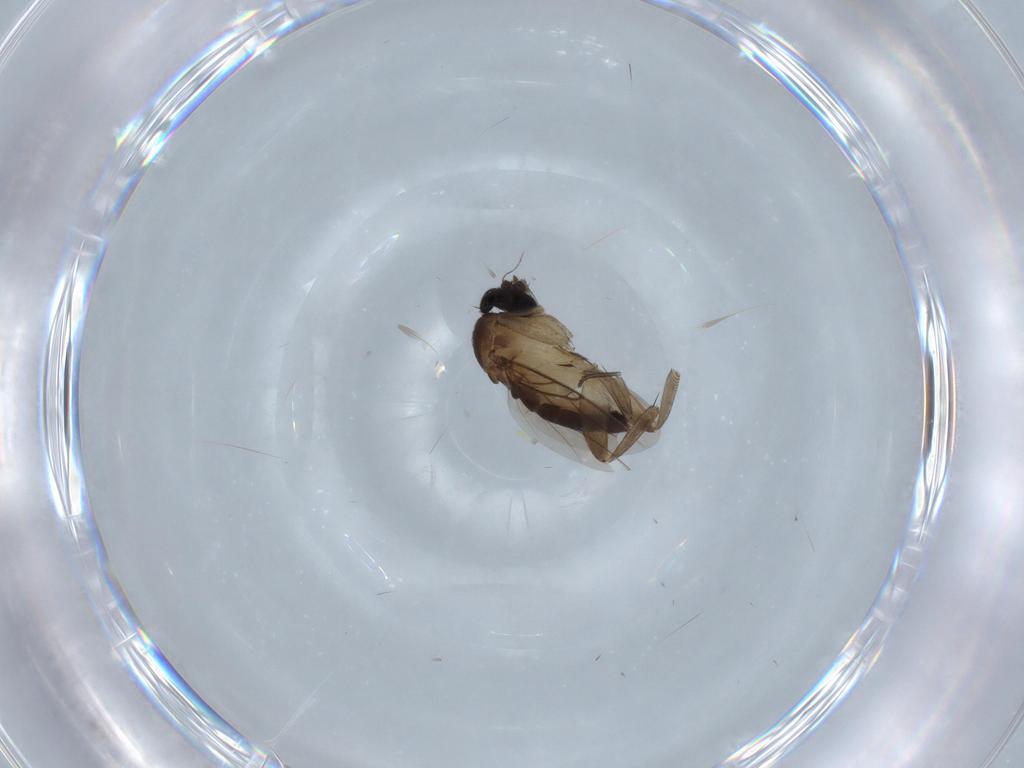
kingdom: Animalia
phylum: Arthropoda
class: Insecta
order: Diptera
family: Phoridae
